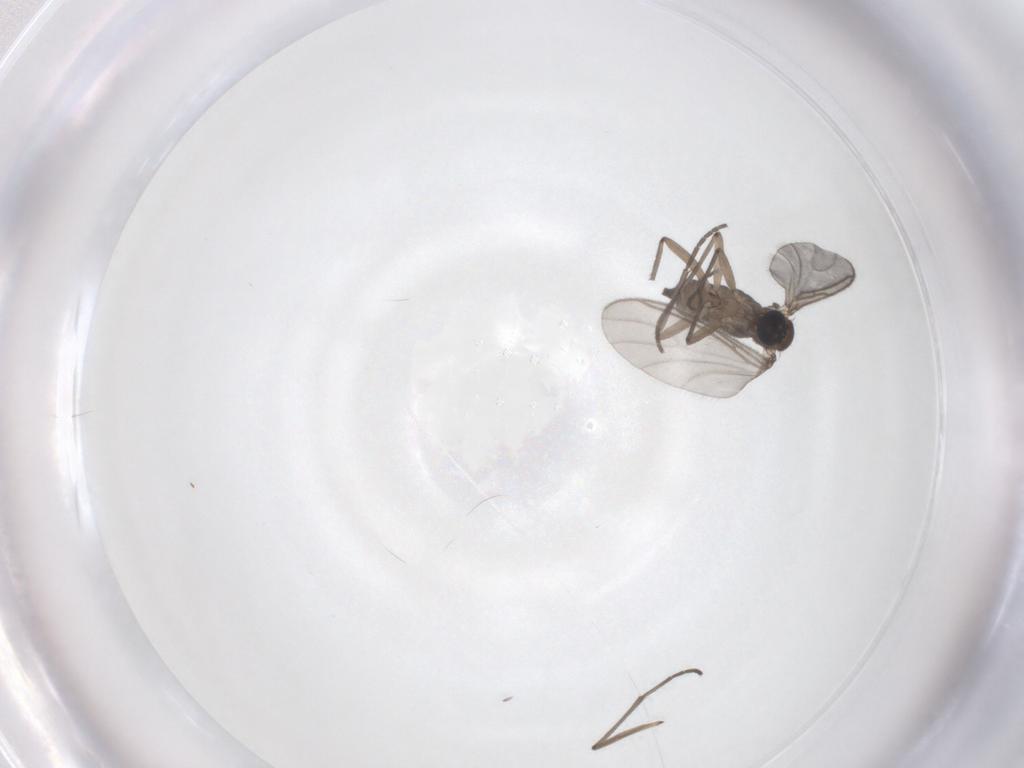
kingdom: Animalia
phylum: Arthropoda
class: Insecta
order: Diptera
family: Sciaridae
